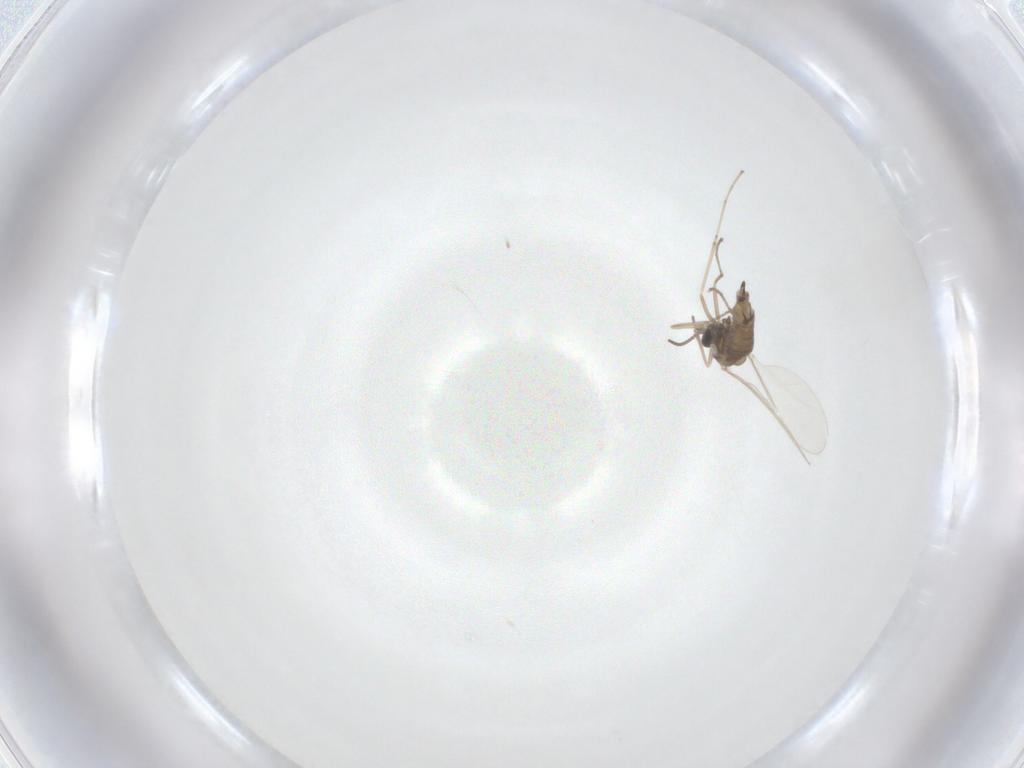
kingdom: Animalia
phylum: Arthropoda
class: Insecta
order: Diptera
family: Cecidomyiidae
